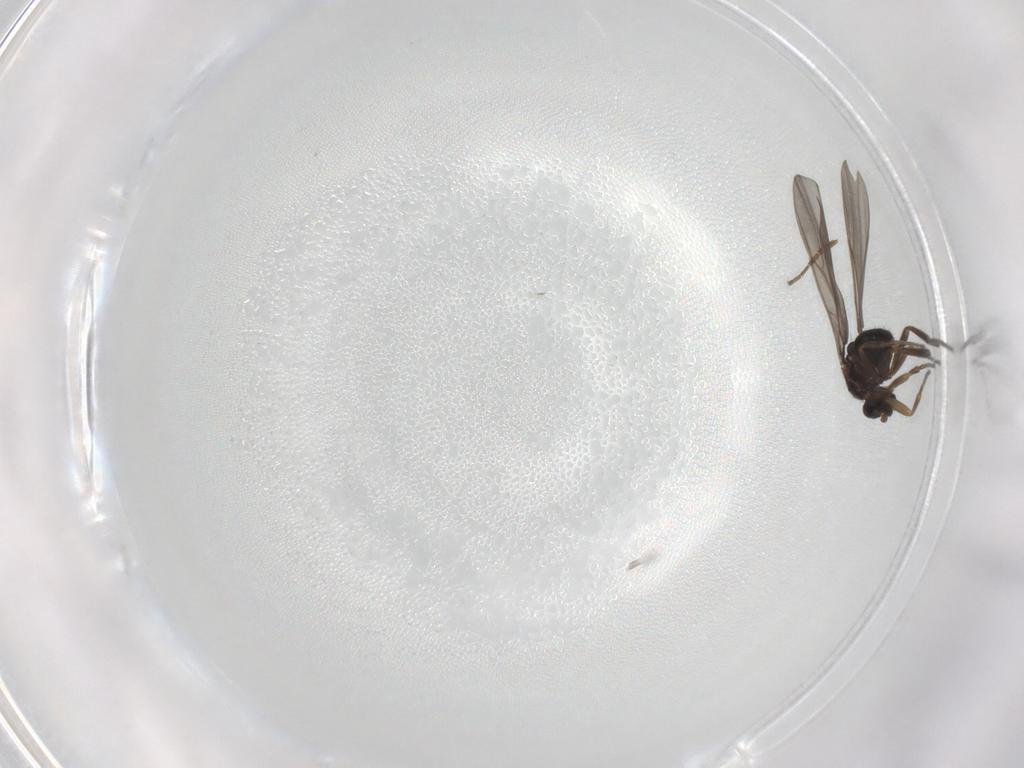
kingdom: Animalia
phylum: Arthropoda
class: Insecta
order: Diptera
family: Phoridae
